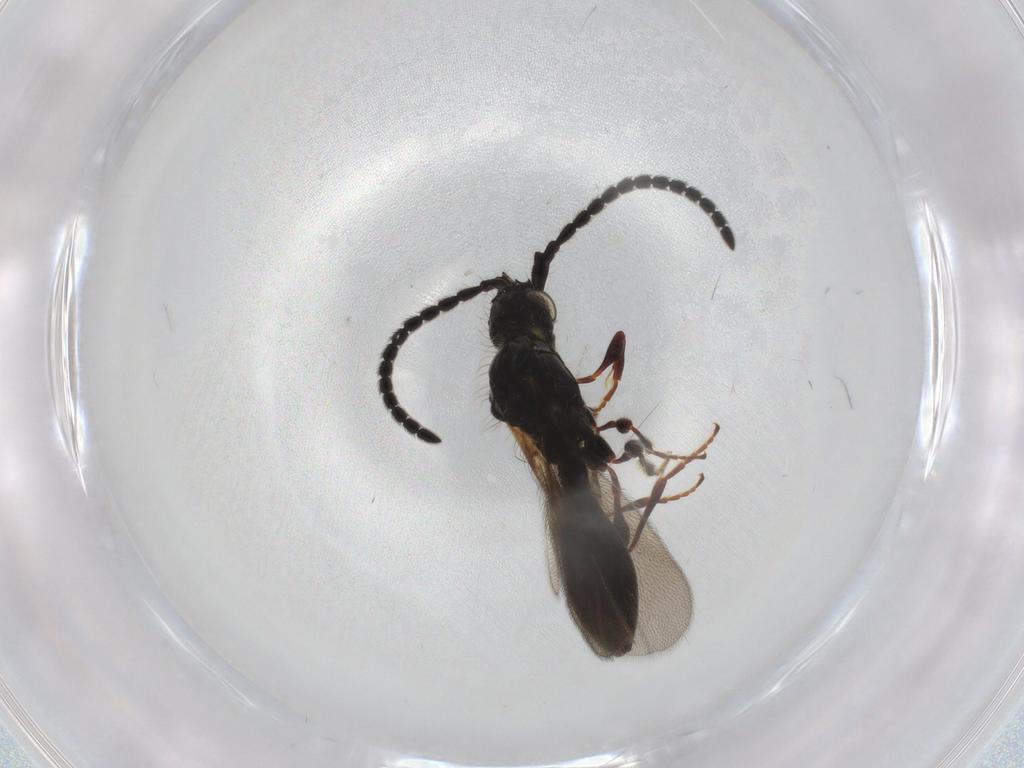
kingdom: Animalia
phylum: Arthropoda
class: Insecta
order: Hymenoptera
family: Diapriidae
